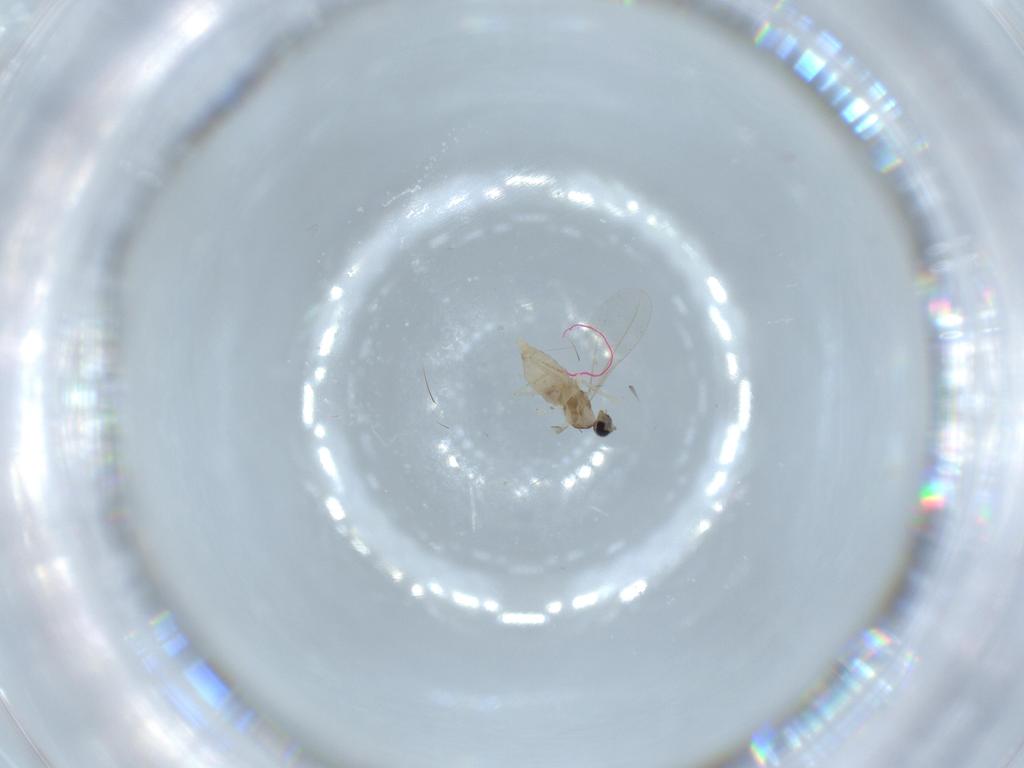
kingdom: Animalia
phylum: Arthropoda
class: Insecta
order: Diptera
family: Cecidomyiidae
